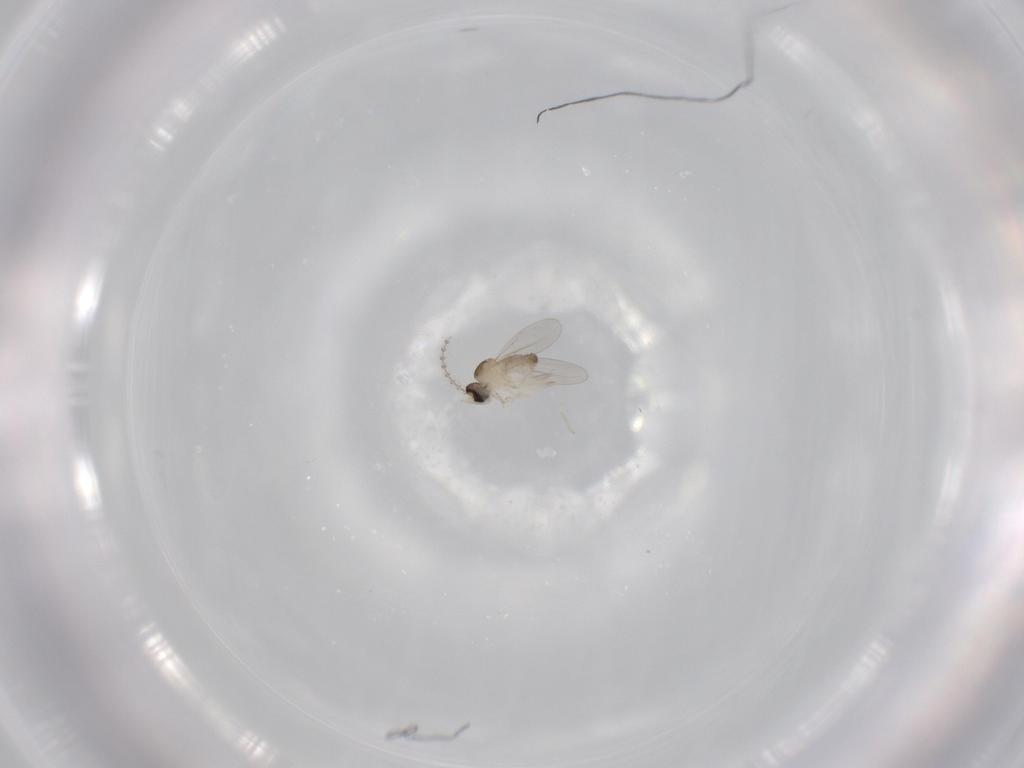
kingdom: Animalia
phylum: Arthropoda
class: Insecta
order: Diptera
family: Cecidomyiidae
